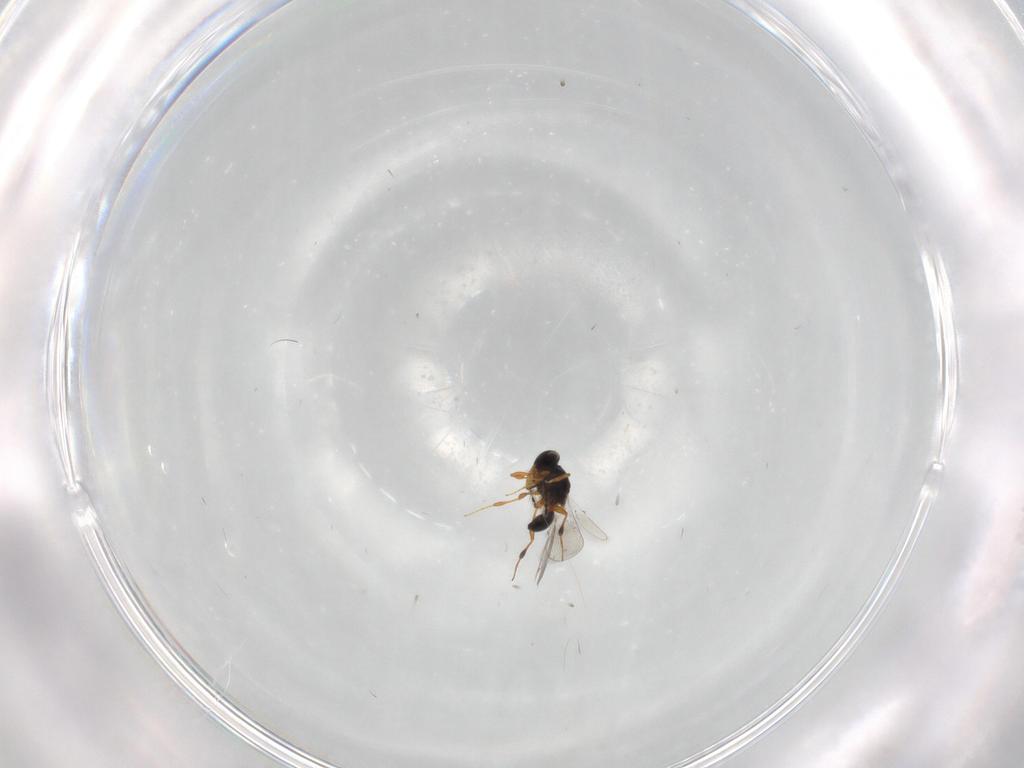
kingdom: Animalia
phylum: Arthropoda
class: Insecta
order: Hymenoptera
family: Platygastridae
